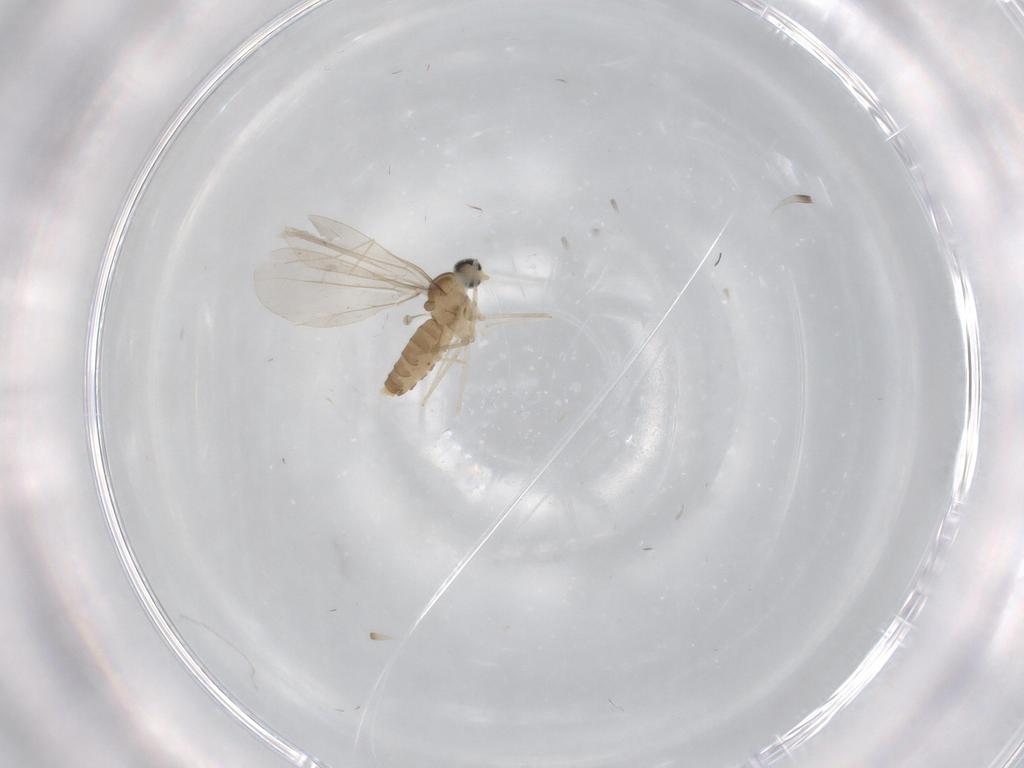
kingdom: Animalia
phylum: Arthropoda
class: Insecta
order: Diptera
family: Cecidomyiidae
